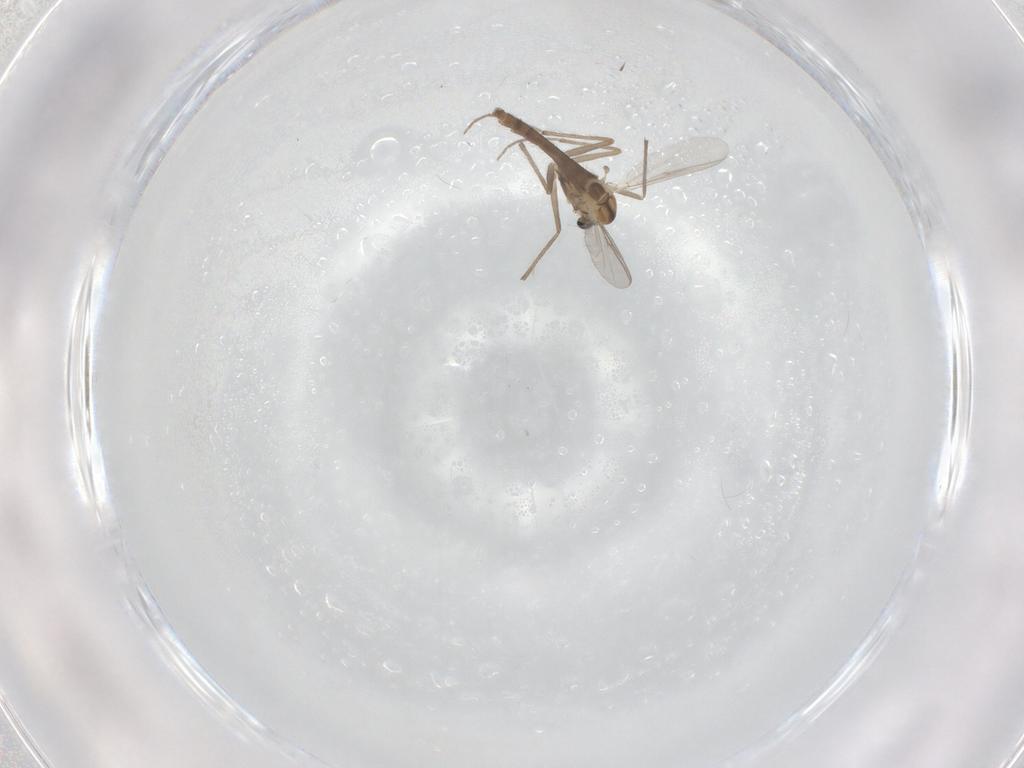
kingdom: Animalia
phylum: Arthropoda
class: Insecta
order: Diptera
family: Chironomidae
